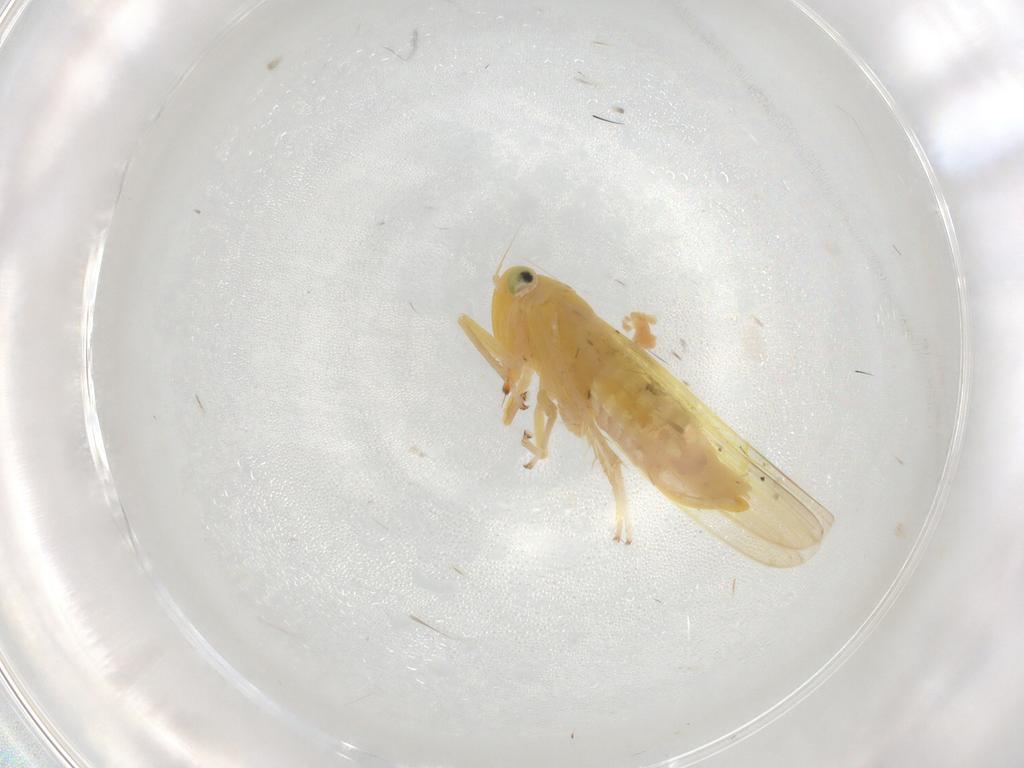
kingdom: Animalia
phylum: Arthropoda
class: Insecta
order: Hemiptera
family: Cicadellidae
